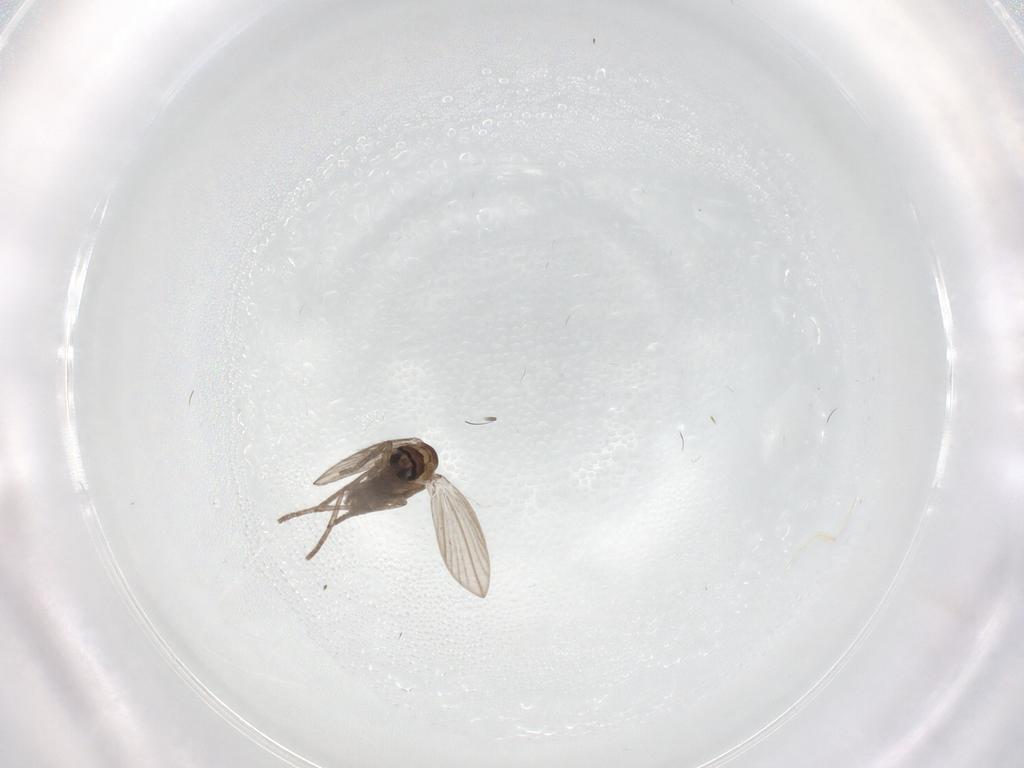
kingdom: Animalia
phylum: Arthropoda
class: Insecta
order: Diptera
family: Psychodidae
